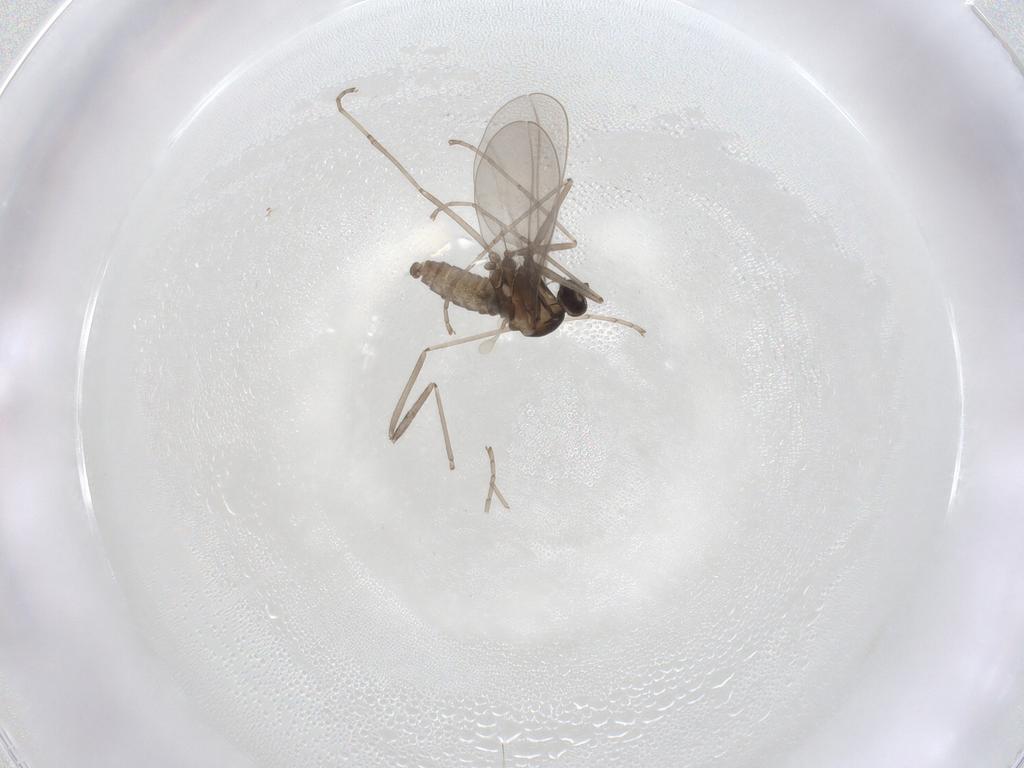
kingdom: Animalia
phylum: Arthropoda
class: Insecta
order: Diptera
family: Cecidomyiidae
